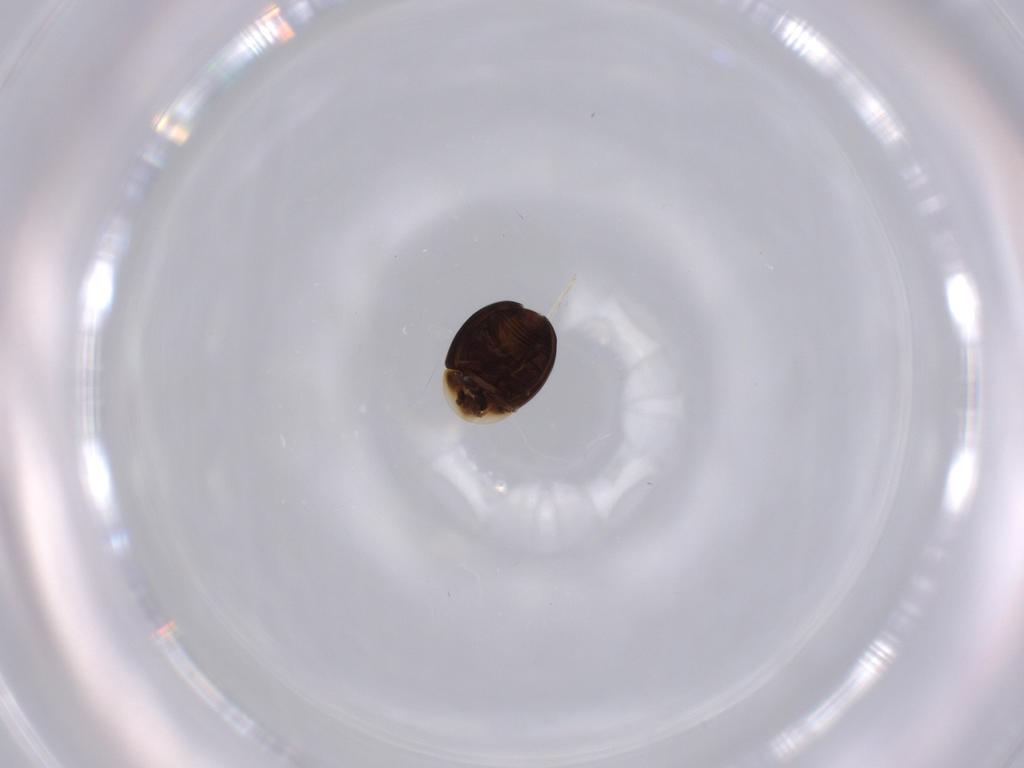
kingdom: Animalia
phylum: Arthropoda
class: Insecta
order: Coleoptera
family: Corylophidae
